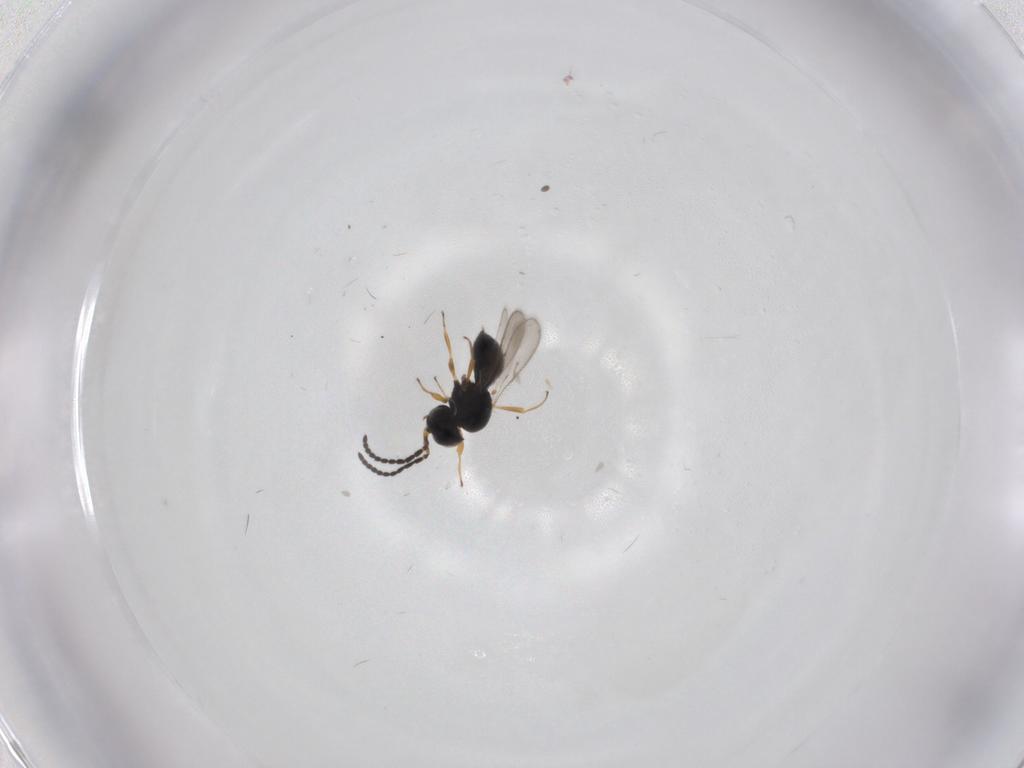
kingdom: Animalia
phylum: Arthropoda
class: Insecta
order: Hymenoptera
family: Scelionidae
